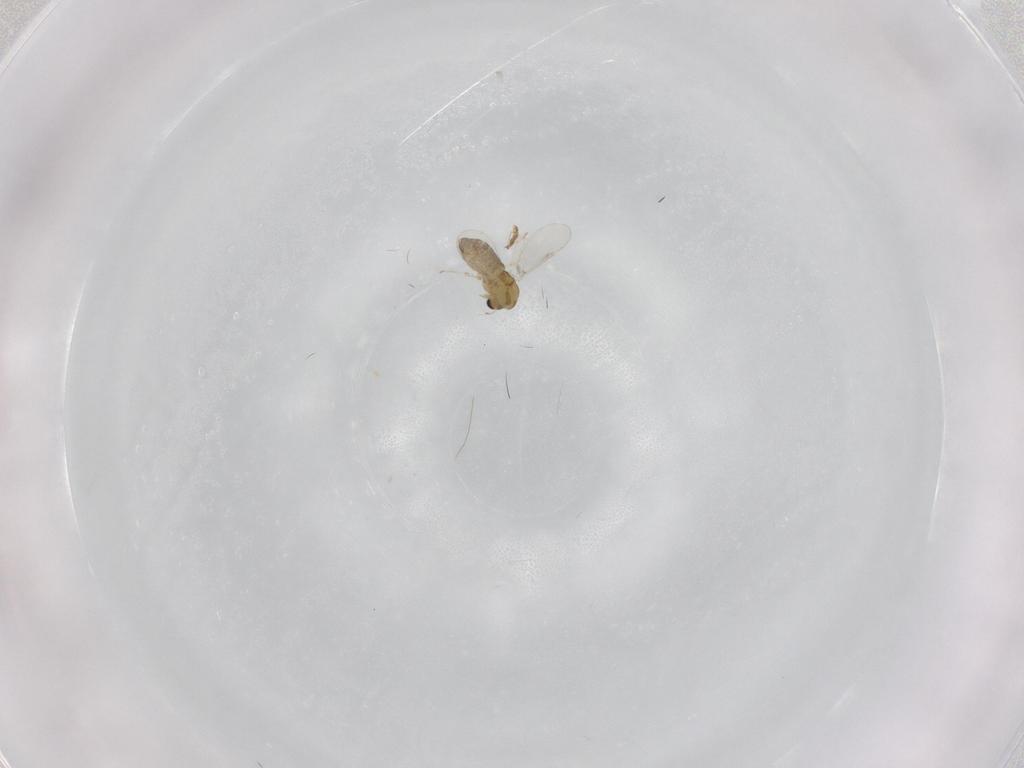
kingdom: Animalia
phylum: Arthropoda
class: Insecta
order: Diptera
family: Chironomidae
